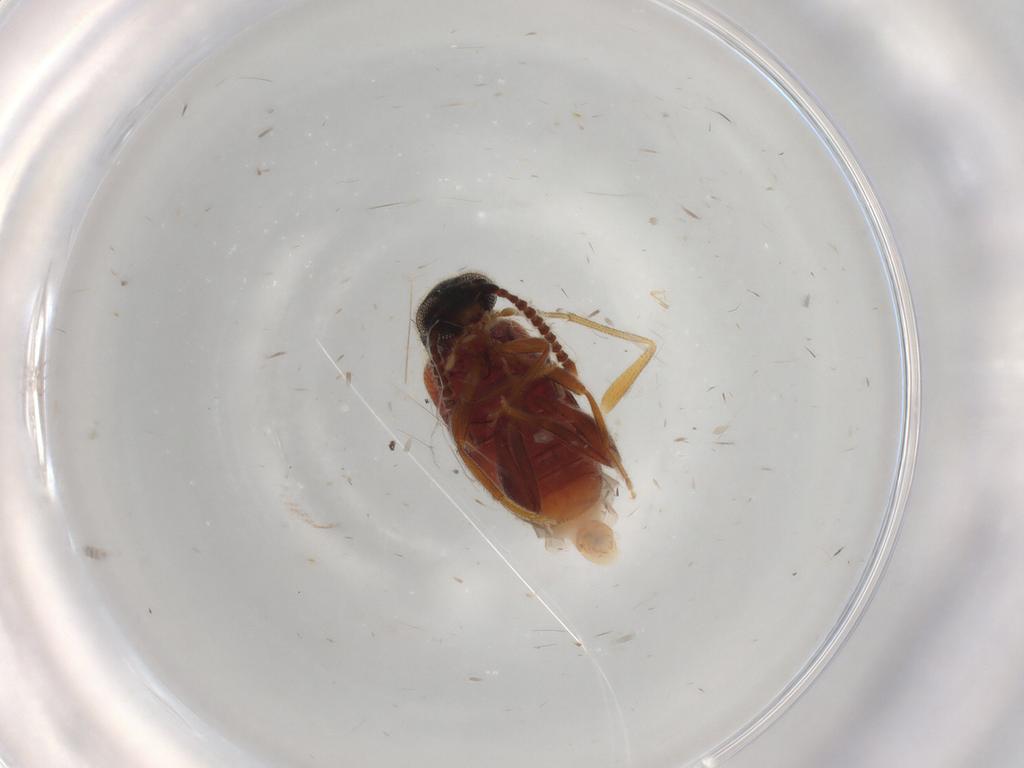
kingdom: Animalia
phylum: Arthropoda
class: Insecta
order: Coleoptera
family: Aderidae
